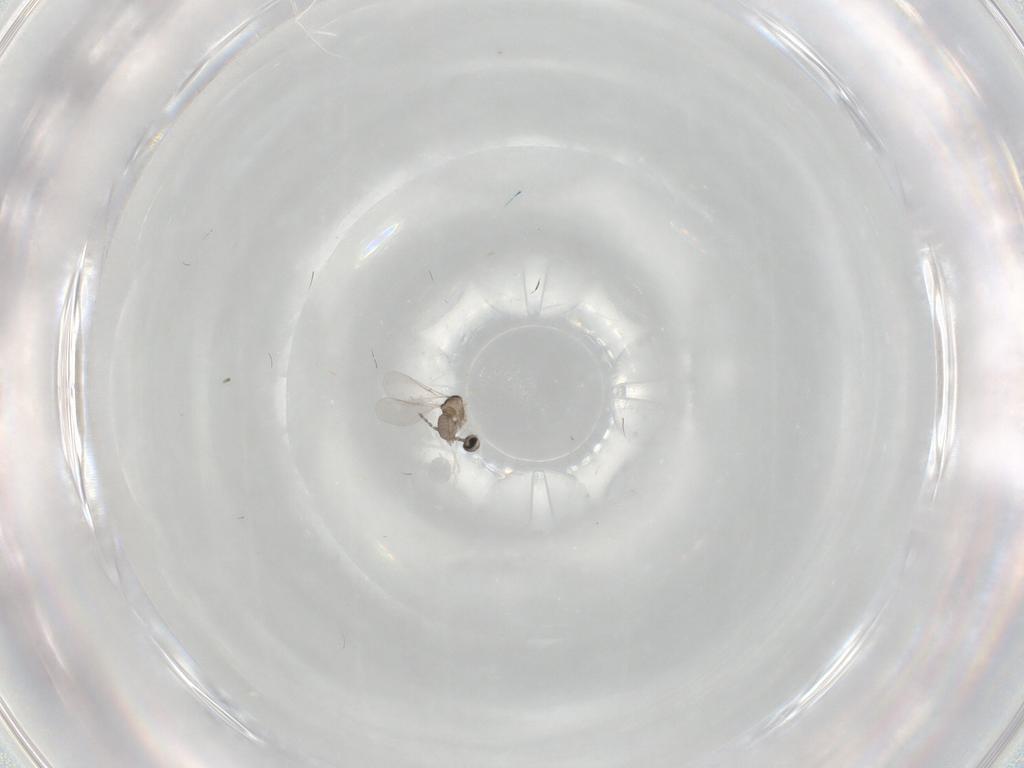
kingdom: Animalia
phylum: Arthropoda
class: Insecta
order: Diptera
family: Cecidomyiidae
